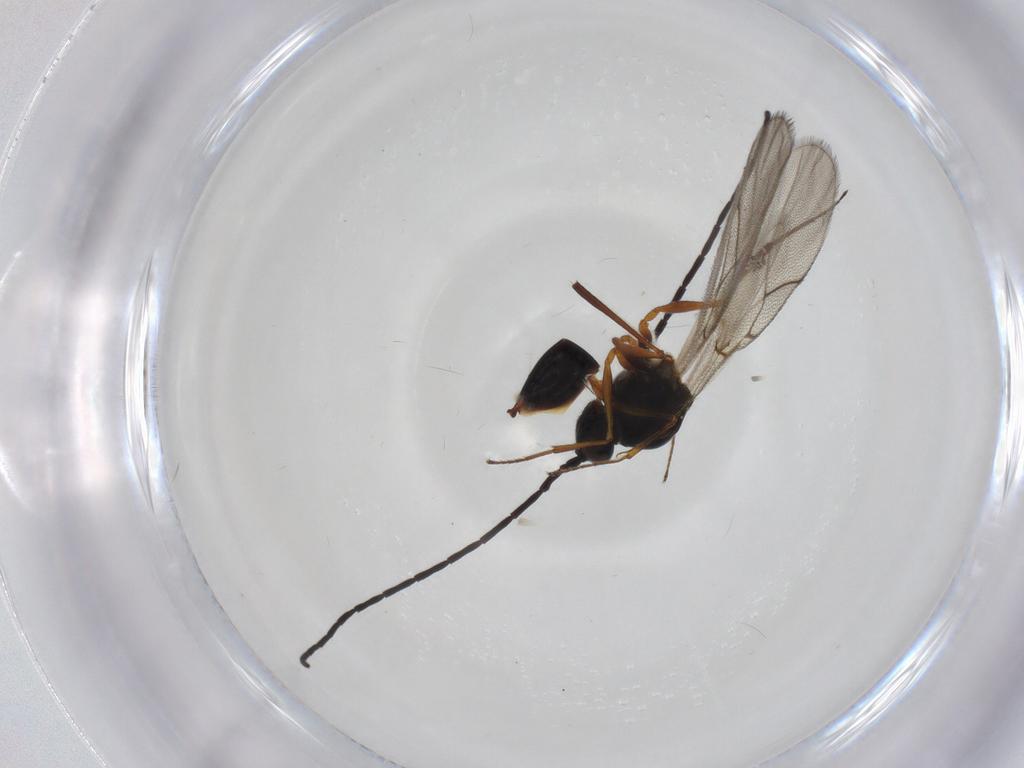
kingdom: Animalia
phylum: Arthropoda
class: Insecta
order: Hymenoptera
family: Figitidae
